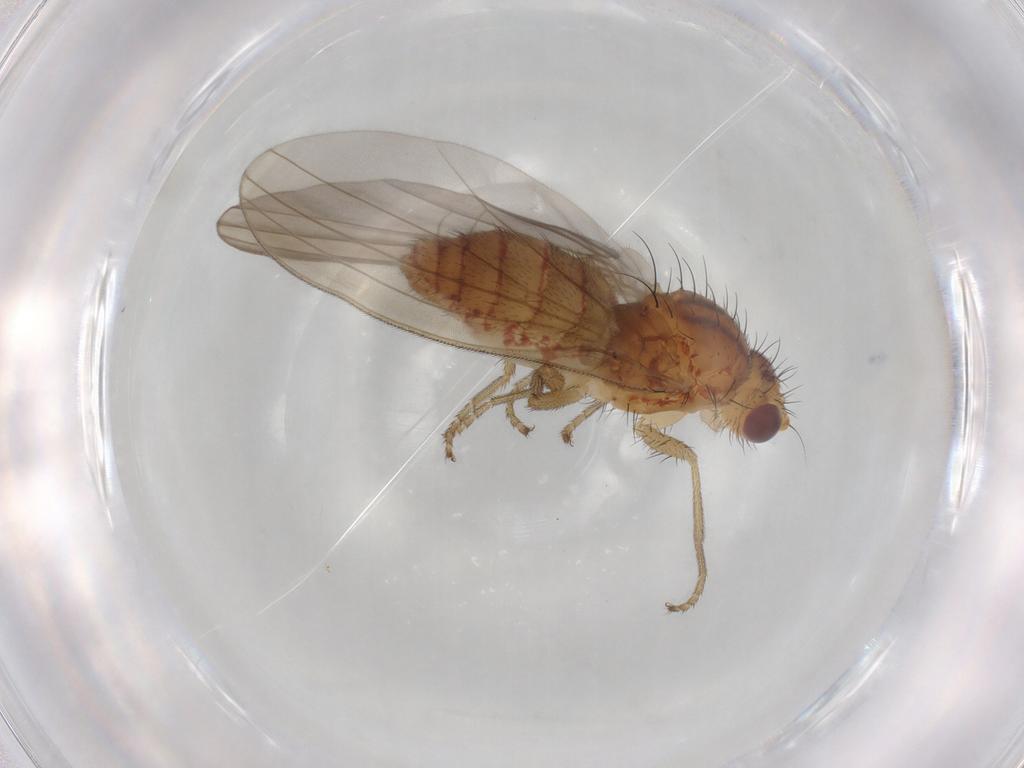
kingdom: Animalia
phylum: Arthropoda
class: Insecta
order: Diptera
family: Natalimyzidae
